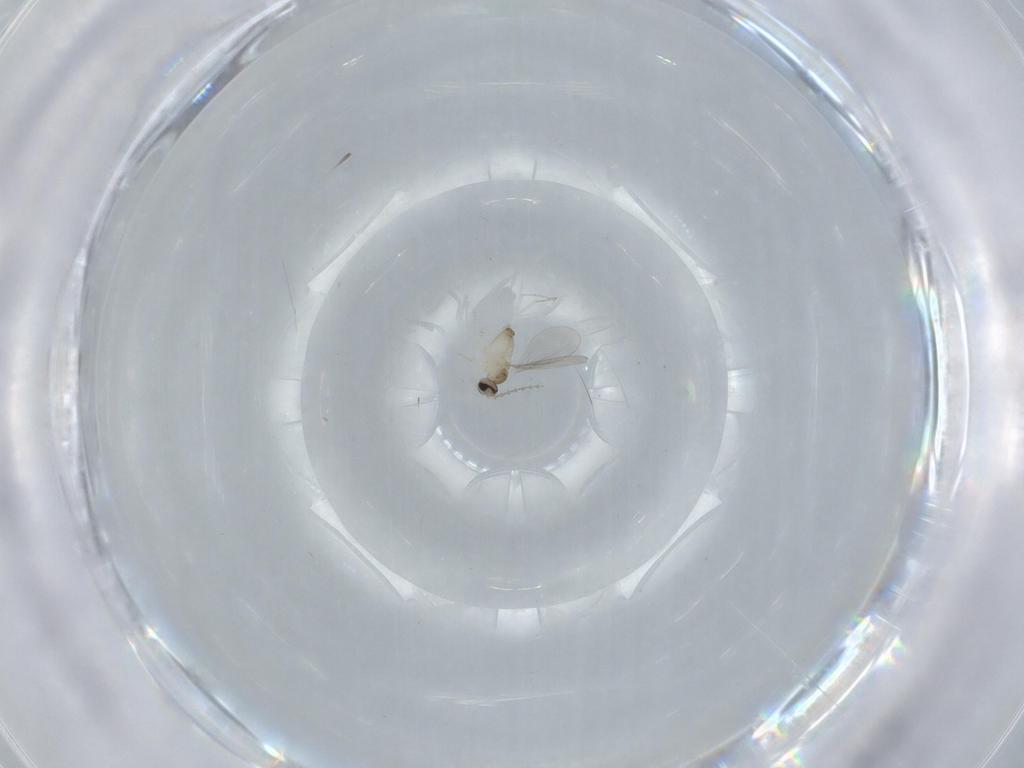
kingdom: Animalia
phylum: Arthropoda
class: Insecta
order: Diptera
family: Cecidomyiidae
